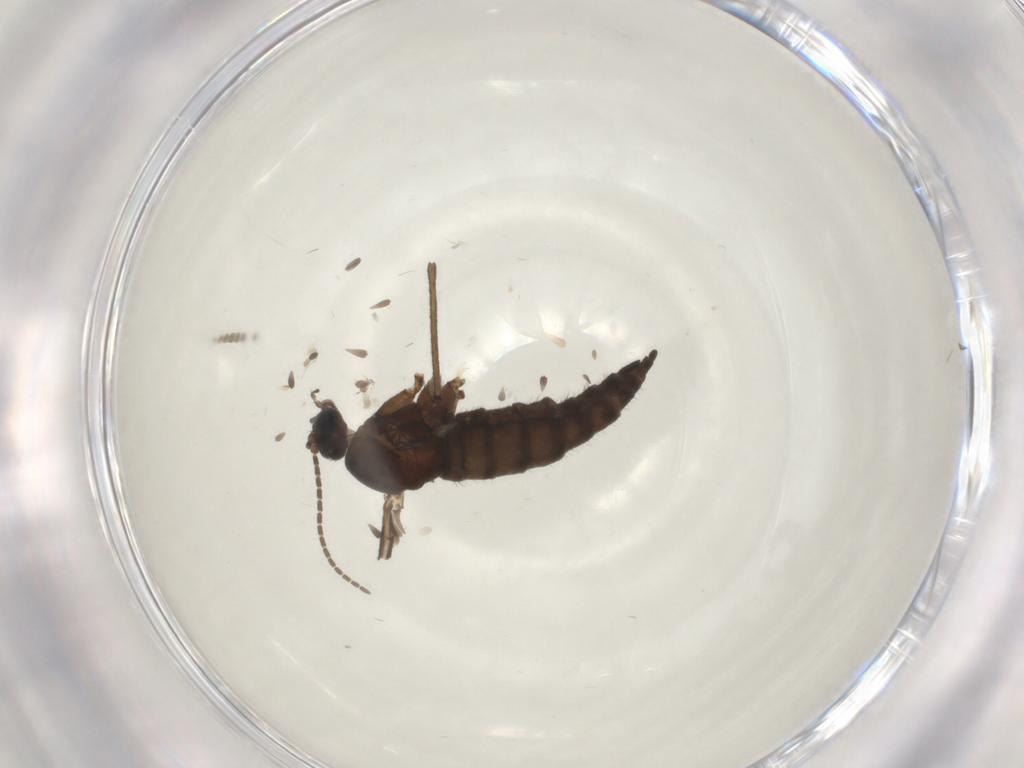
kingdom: Animalia
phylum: Arthropoda
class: Insecta
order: Diptera
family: Sciaridae
